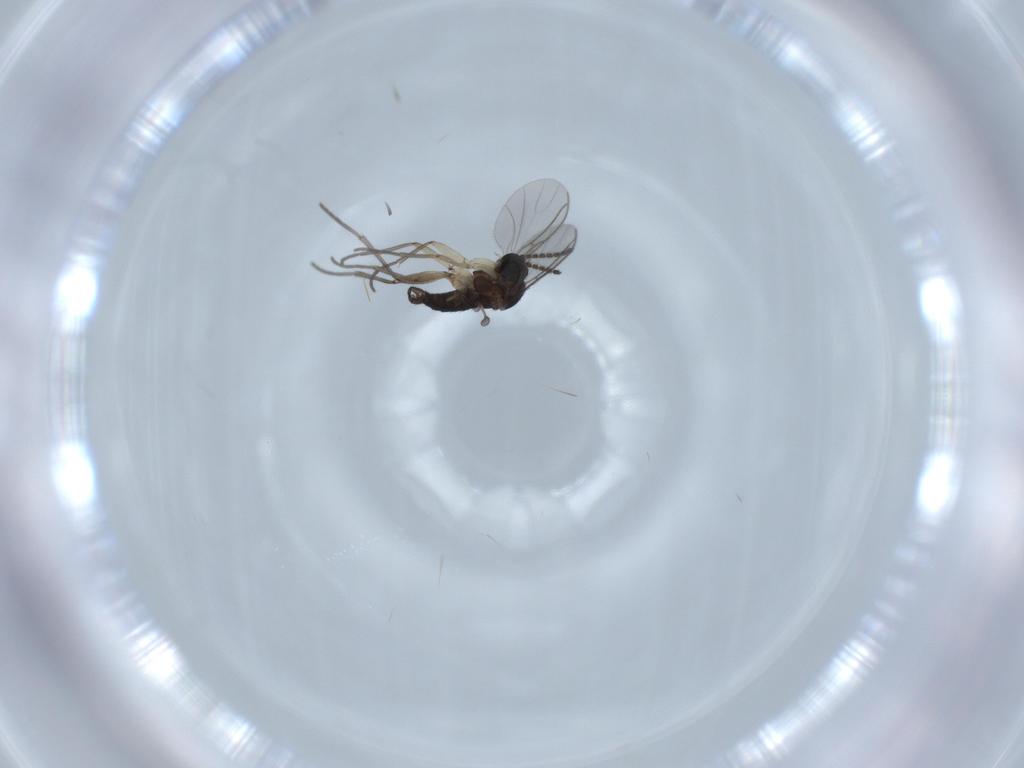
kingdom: Animalia
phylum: Arthropoda
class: Insecta
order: Diptera
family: Sciaridae
